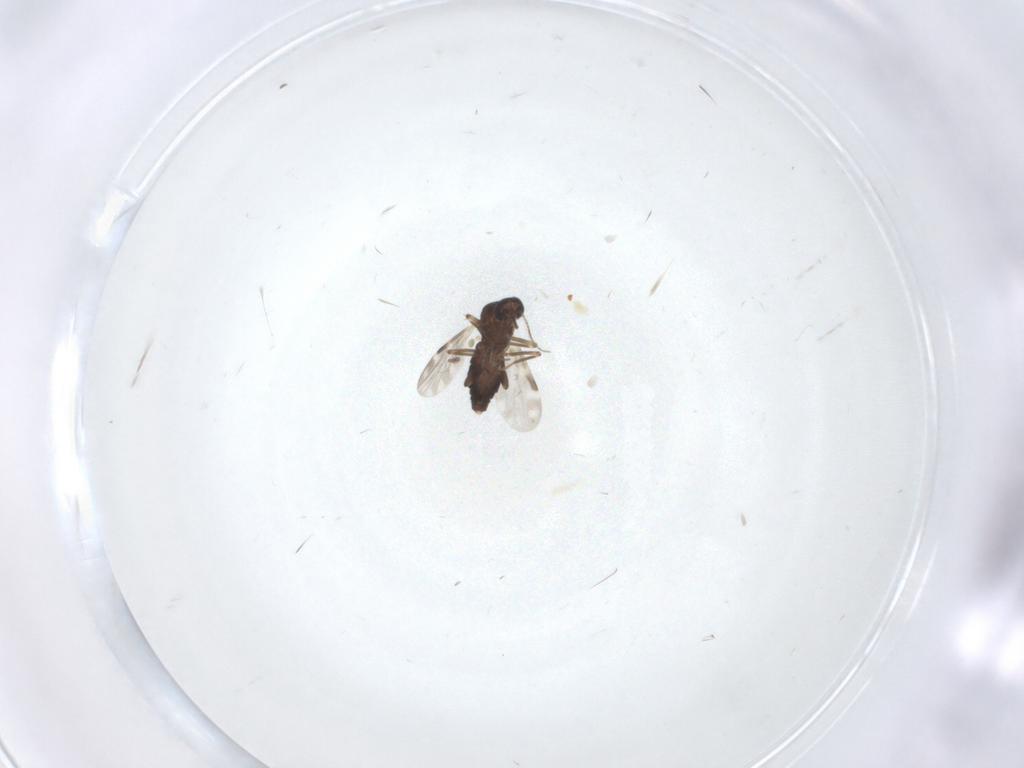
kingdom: Animalia
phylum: Arthropoda
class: Insecta
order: Diptera
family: Ceratopogonidae
